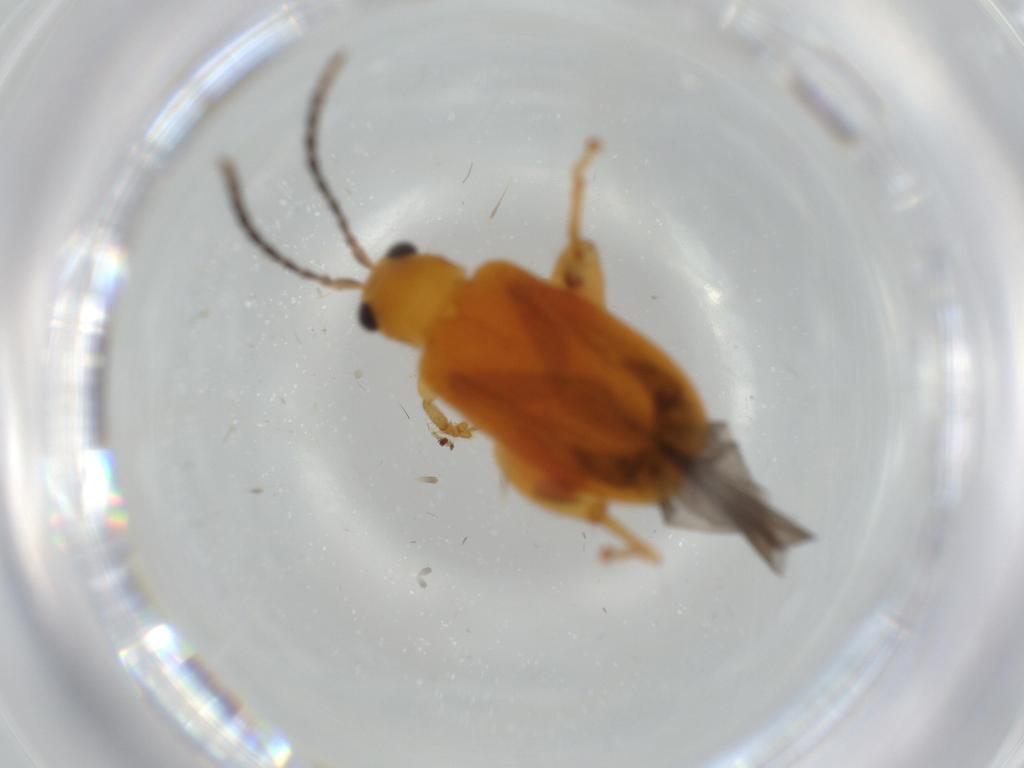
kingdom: Animalia
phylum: Arthropoda
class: Insecta
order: Coleoptera
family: Chrysomelidae
